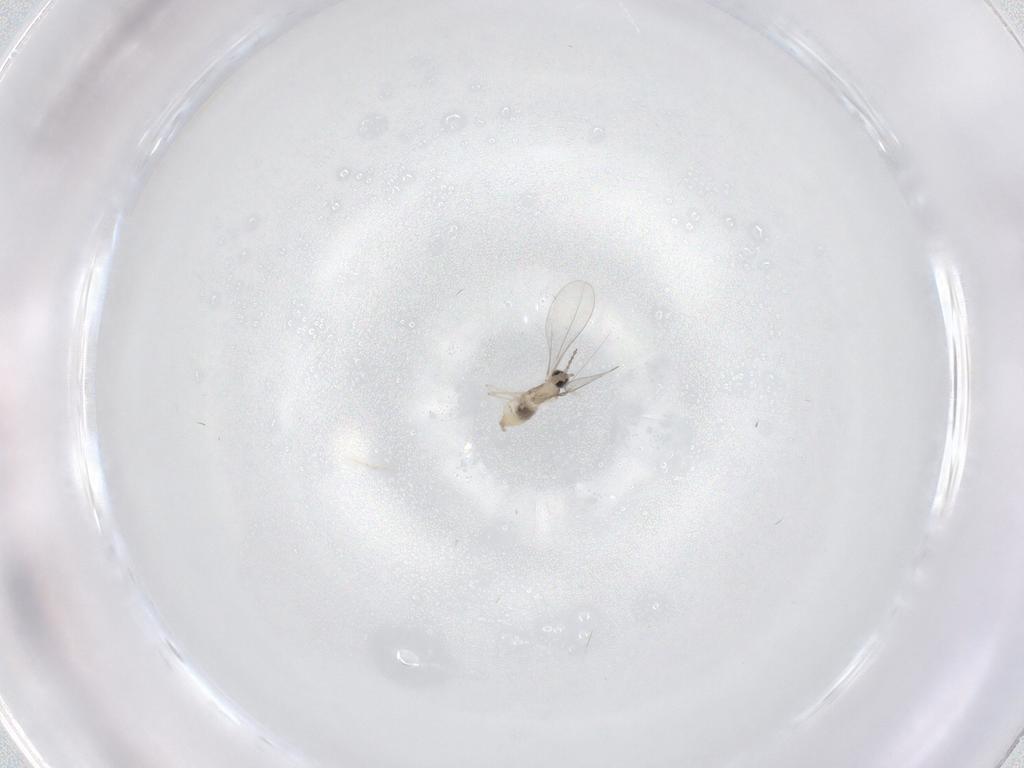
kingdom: Animalia
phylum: Arthropoda
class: Insecta
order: Diptera
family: Cecidomyiidae
